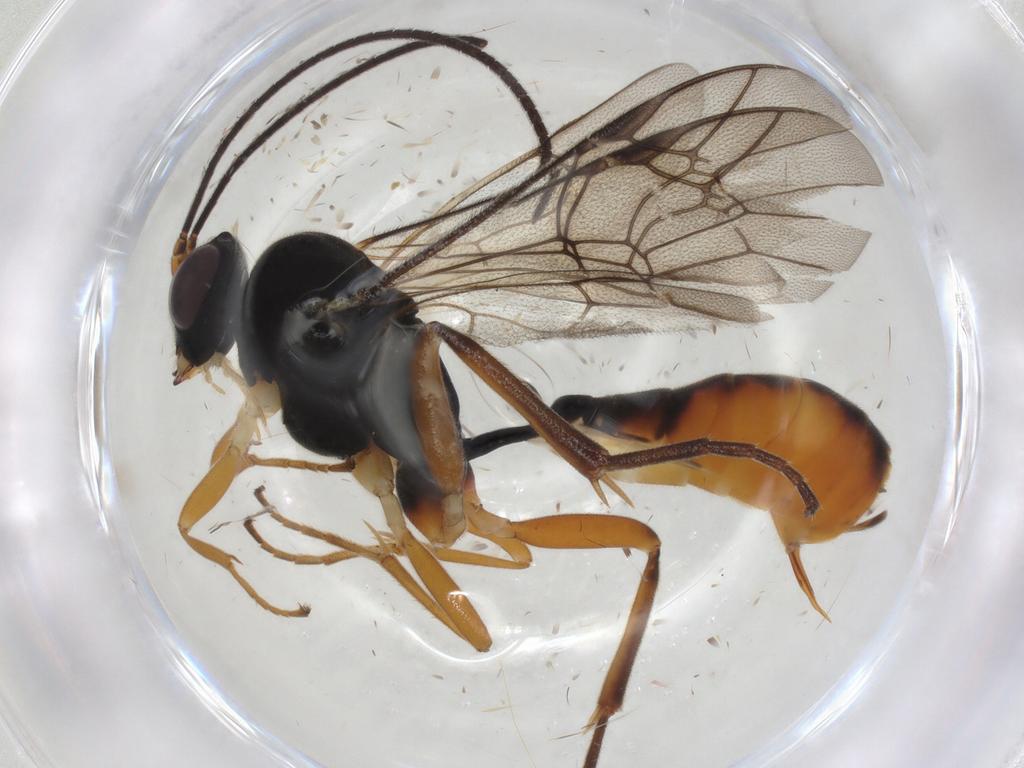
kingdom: Animalia
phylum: Arthropoda
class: Insecta
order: Hymenoptera
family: Ichneumonidae
